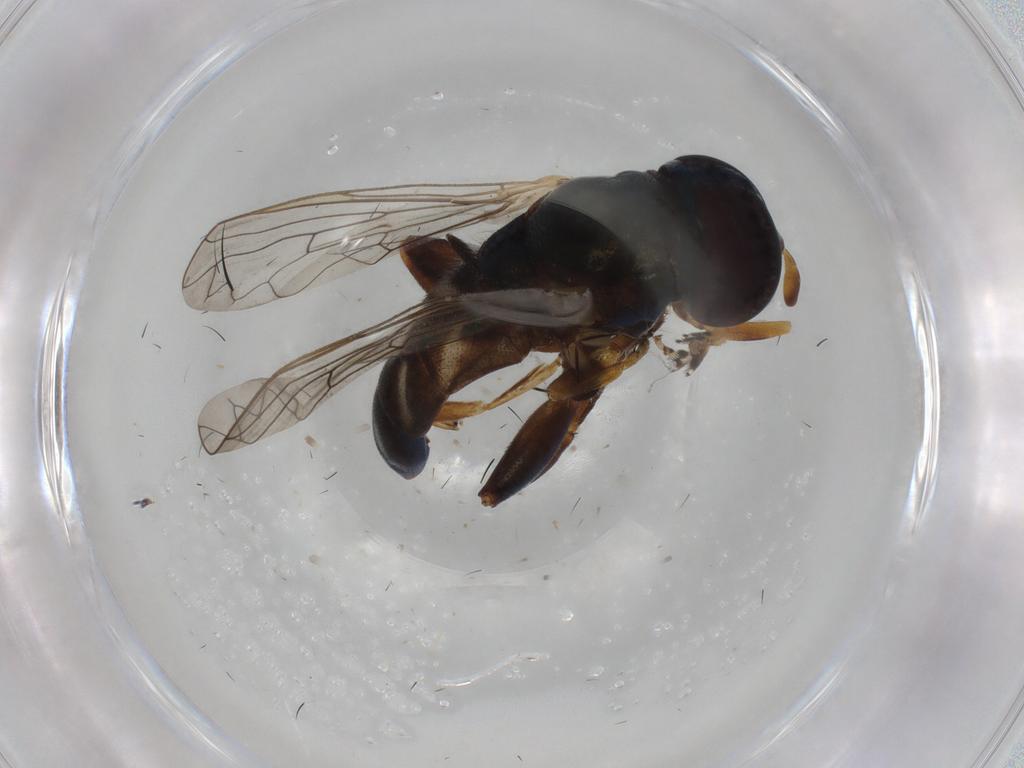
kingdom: Animalia
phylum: Arthropoda
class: Insecta
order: Diptera
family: Syrphidae
